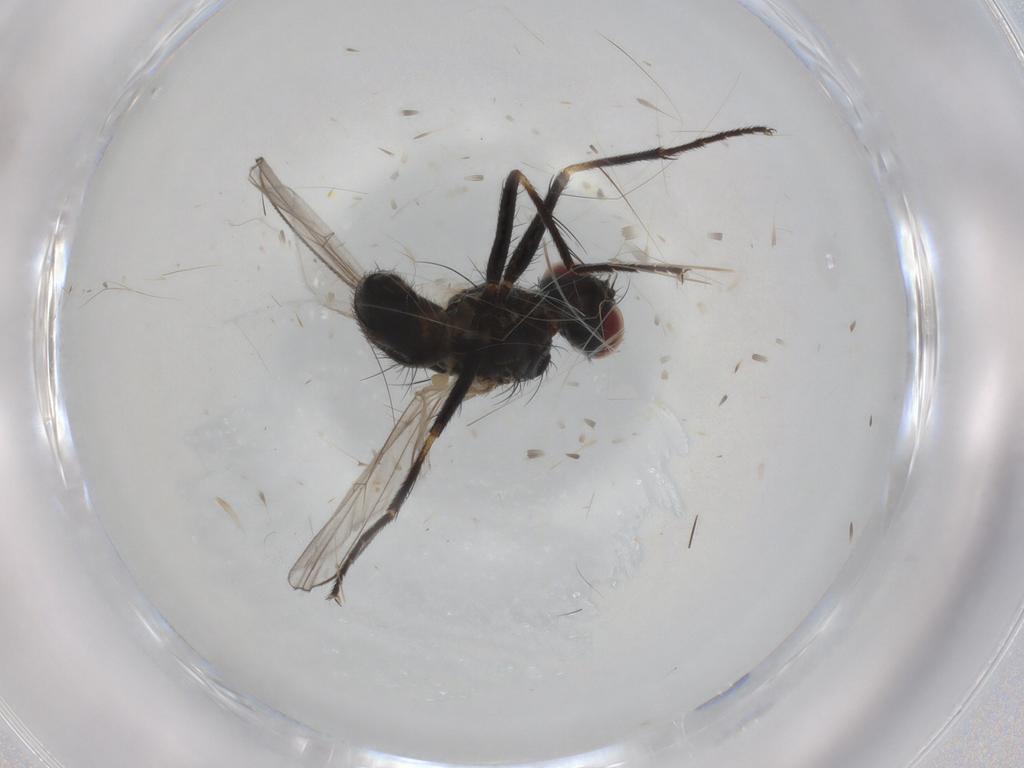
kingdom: Animalia
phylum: Arthropoda
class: Insecta
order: Diptera
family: Muscidae
